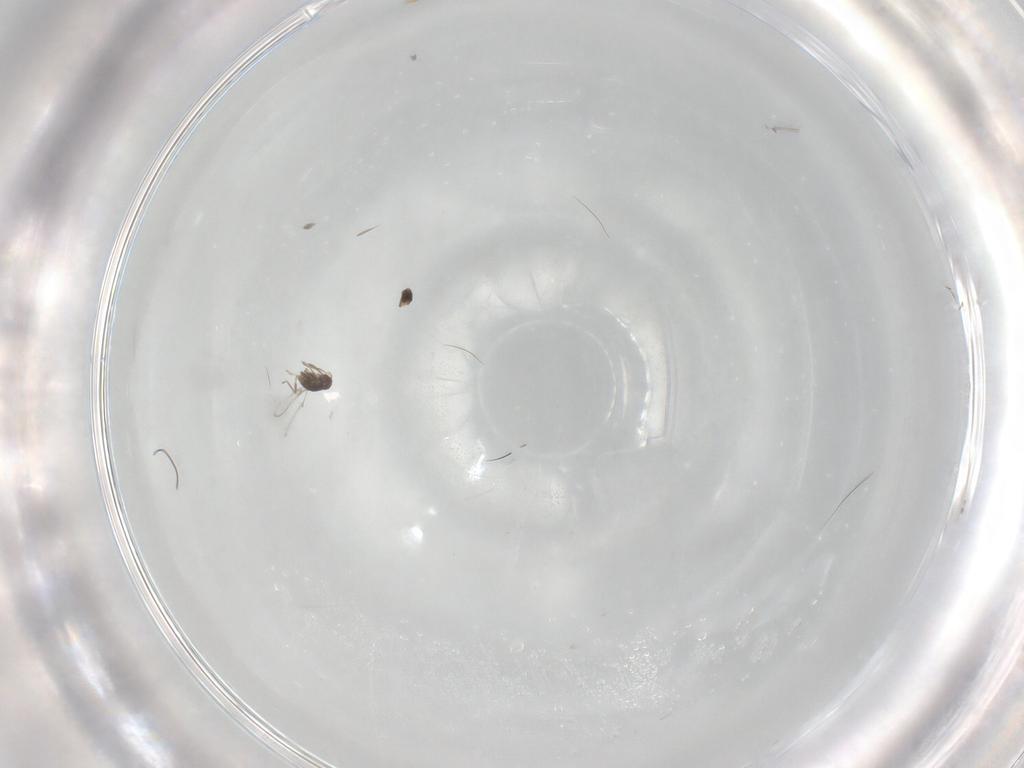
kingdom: Animalia
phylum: Arthropoda
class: Insecta
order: Hymenoptera
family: Mymaridae
